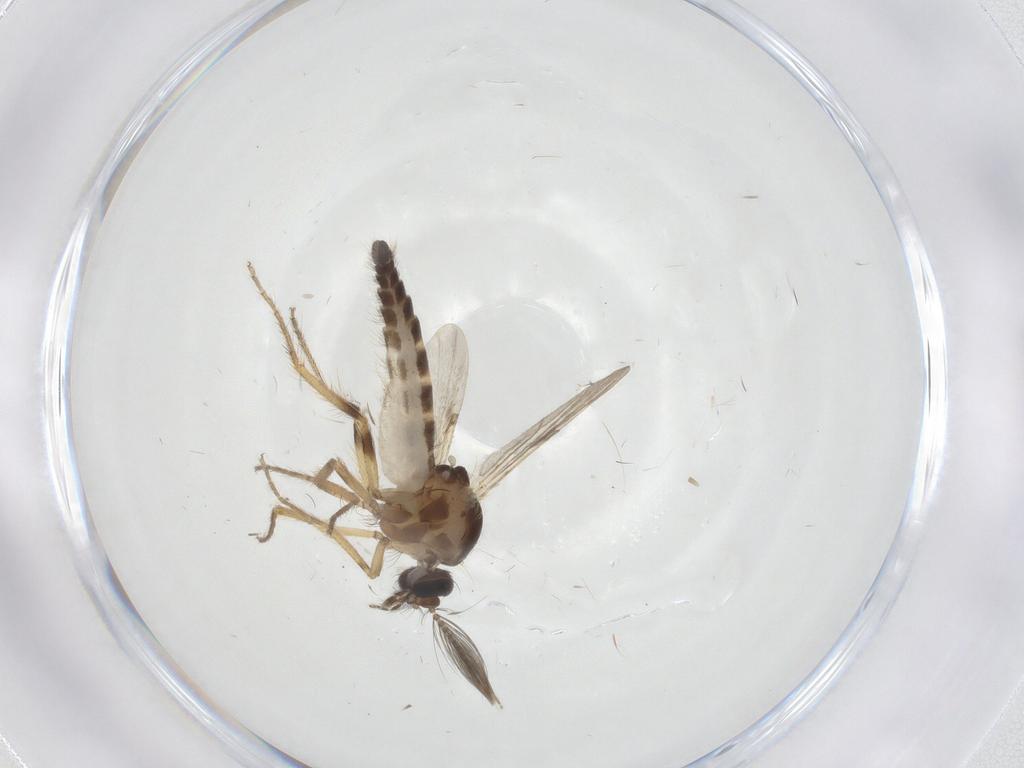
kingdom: Animalia
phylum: Arthropoda
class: Insecta
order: Diptera
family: Ceratopogonidae
